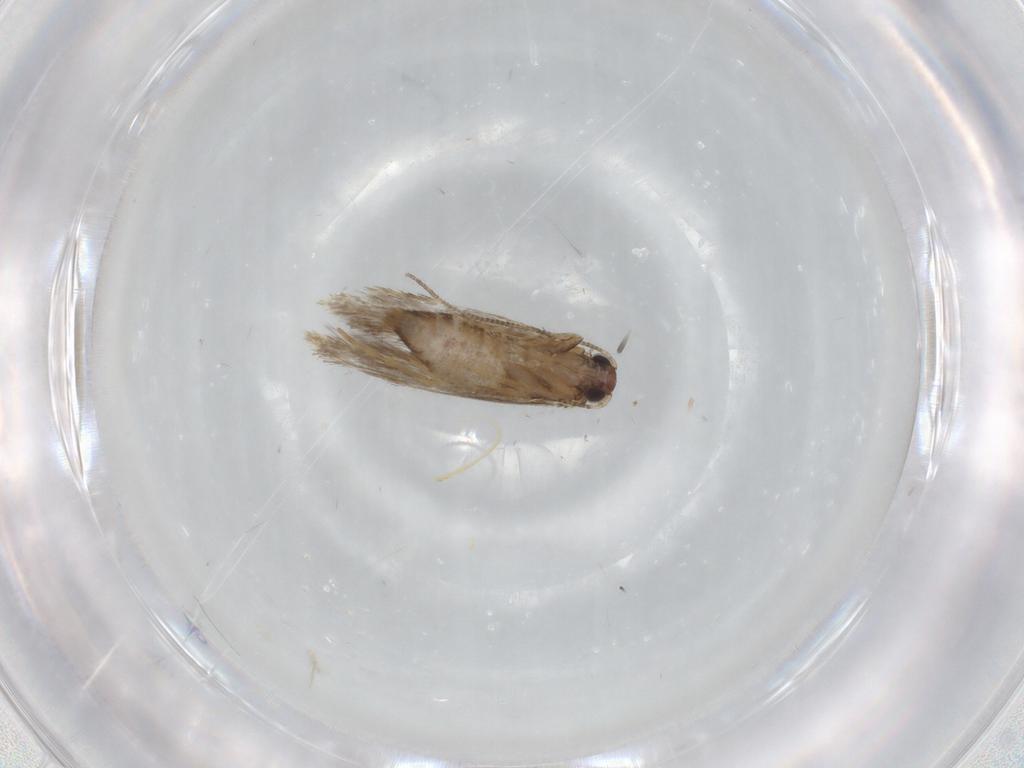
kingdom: Animalia
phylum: Arthropoda
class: Insecta
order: Lepidoptera
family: Tineidae
